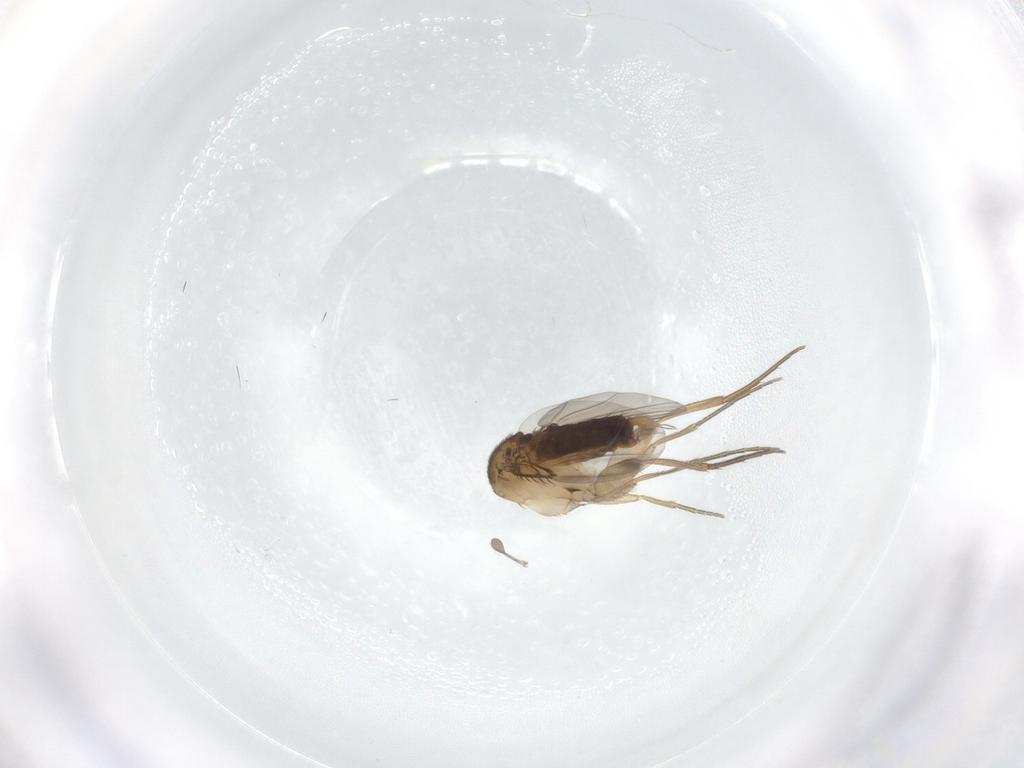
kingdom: Animalia
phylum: Arthropoda
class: Insecta
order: Diptera
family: Phoridae
